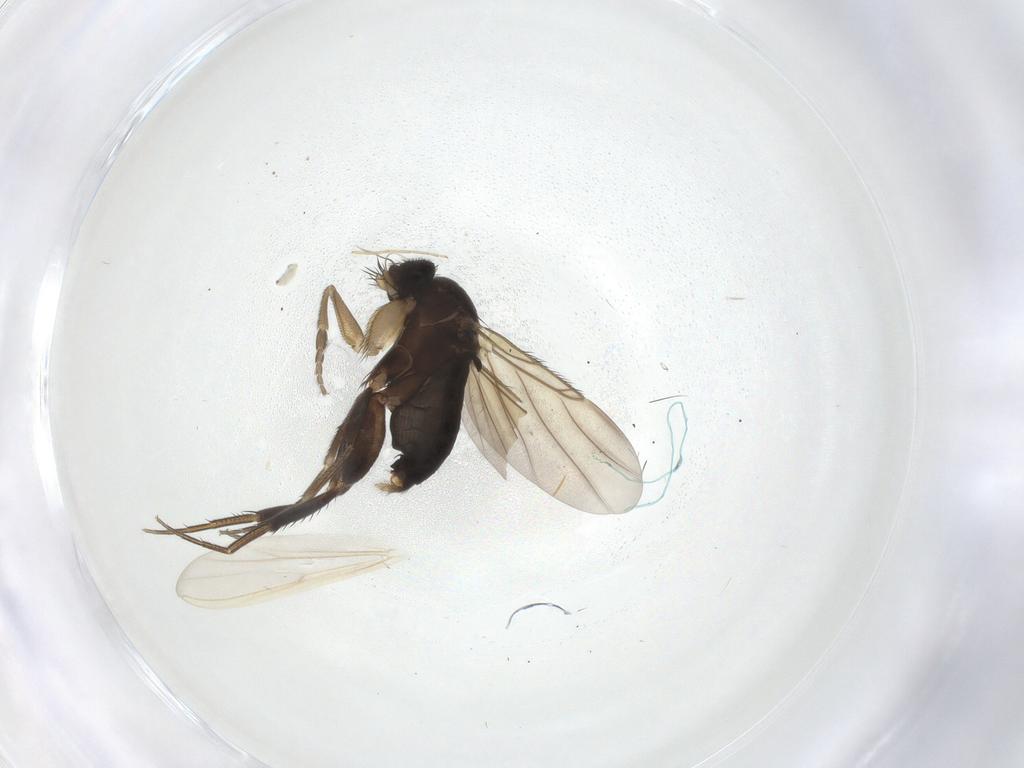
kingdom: Animalia
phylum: Arthropoda
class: Insecta
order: Diptera
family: Phoridae
